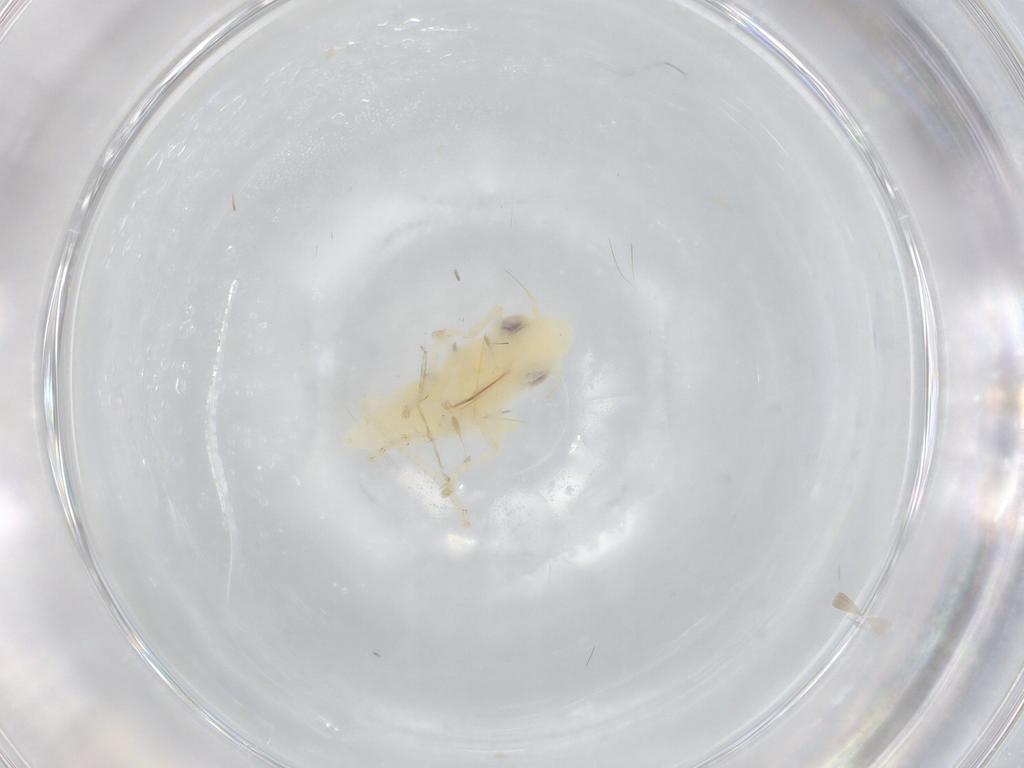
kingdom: Animalia
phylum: Arthropoda
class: Insecta
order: Hemiptera
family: Cicadellidae
